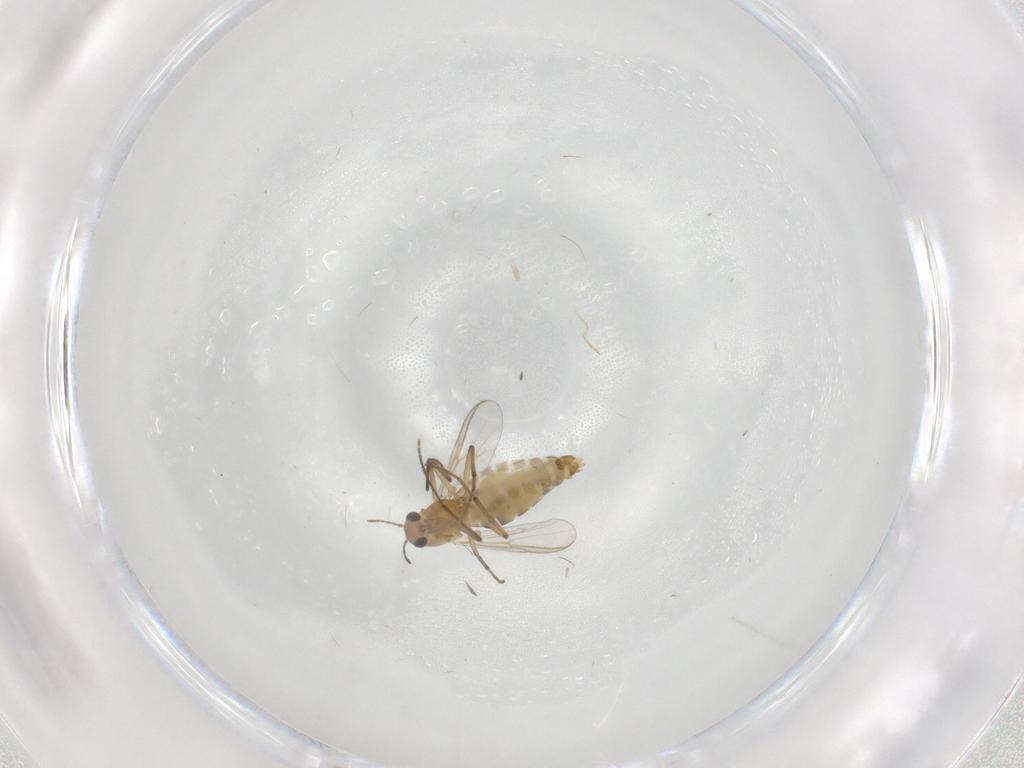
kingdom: Animalia
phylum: Arthropoda
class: Insecta
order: Diptera
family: Chironomidae
